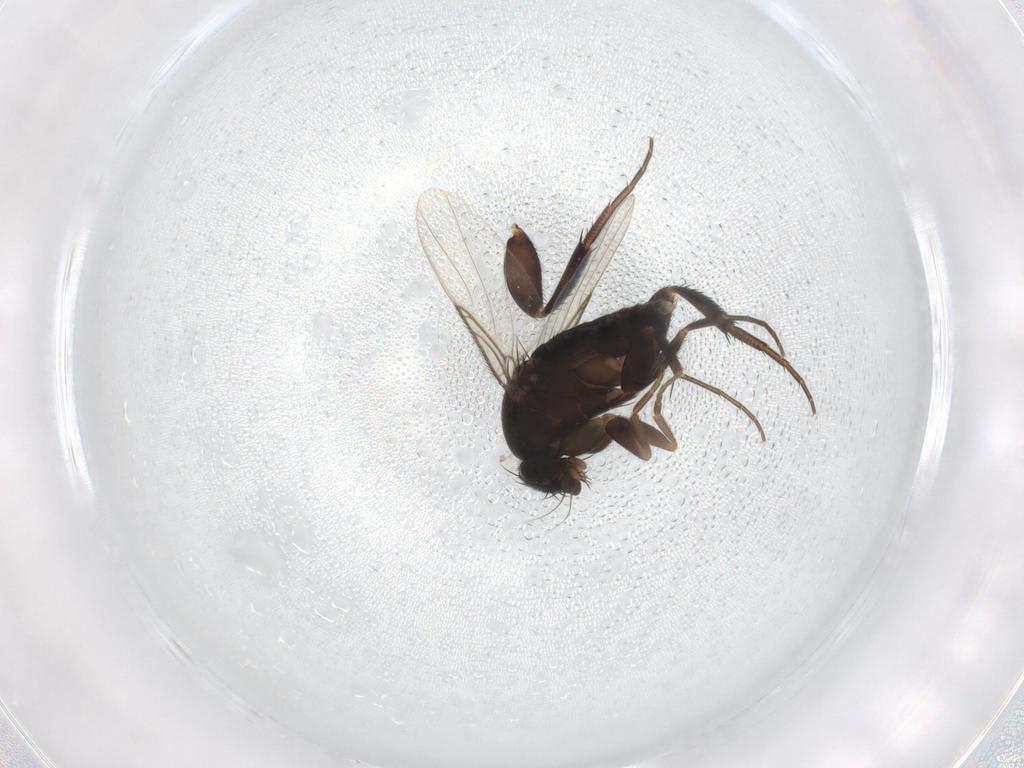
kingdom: Animalia
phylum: Arthropoda
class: Insecta
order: Diptera
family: Phoridae
